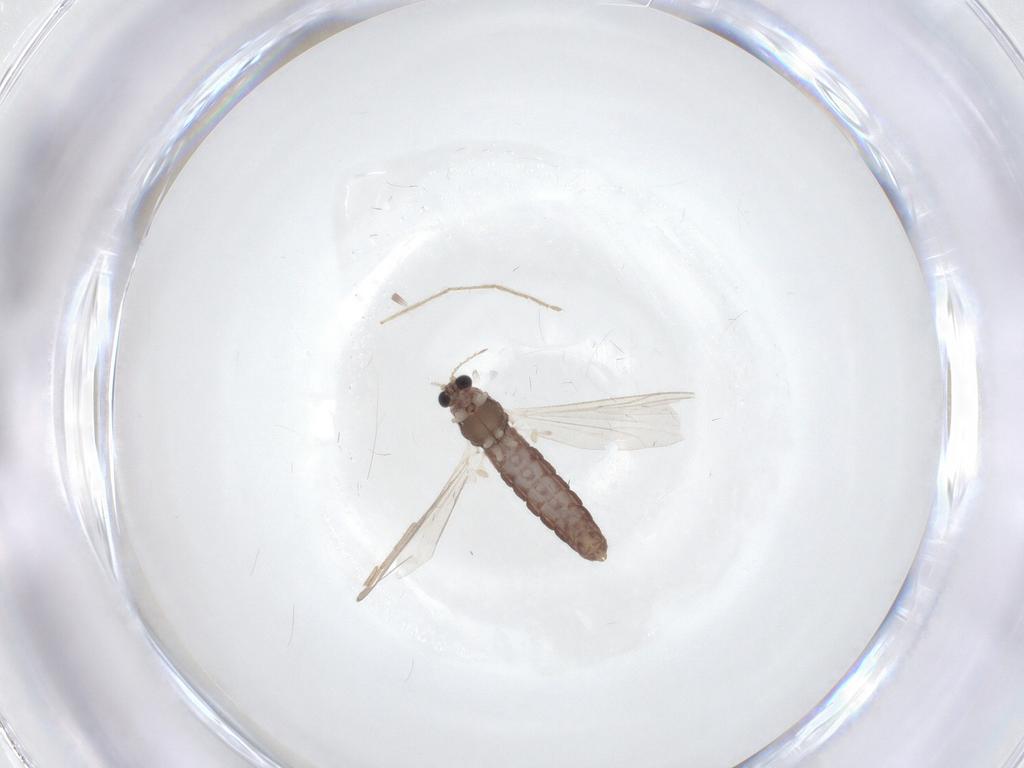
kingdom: Animalia
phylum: Arthropoda
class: Insecta
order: Diptera
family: Chironomidae
